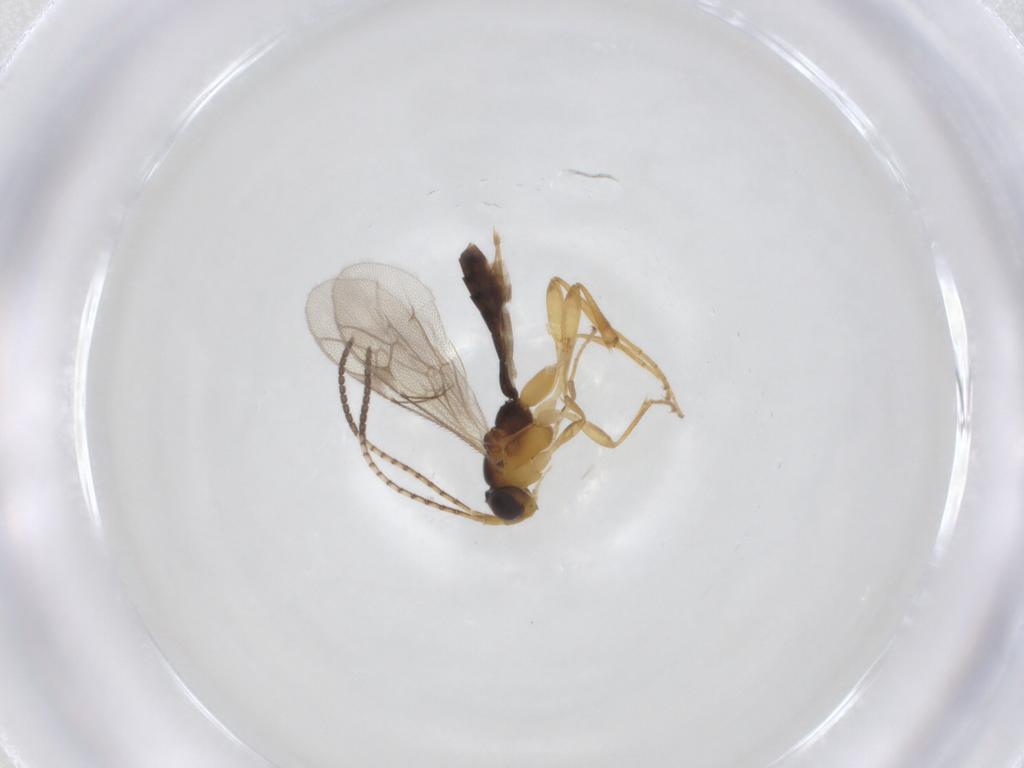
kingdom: Animalia
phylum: Arthropoda
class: Insecta
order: Hymenoptera
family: Ichneumonidae
